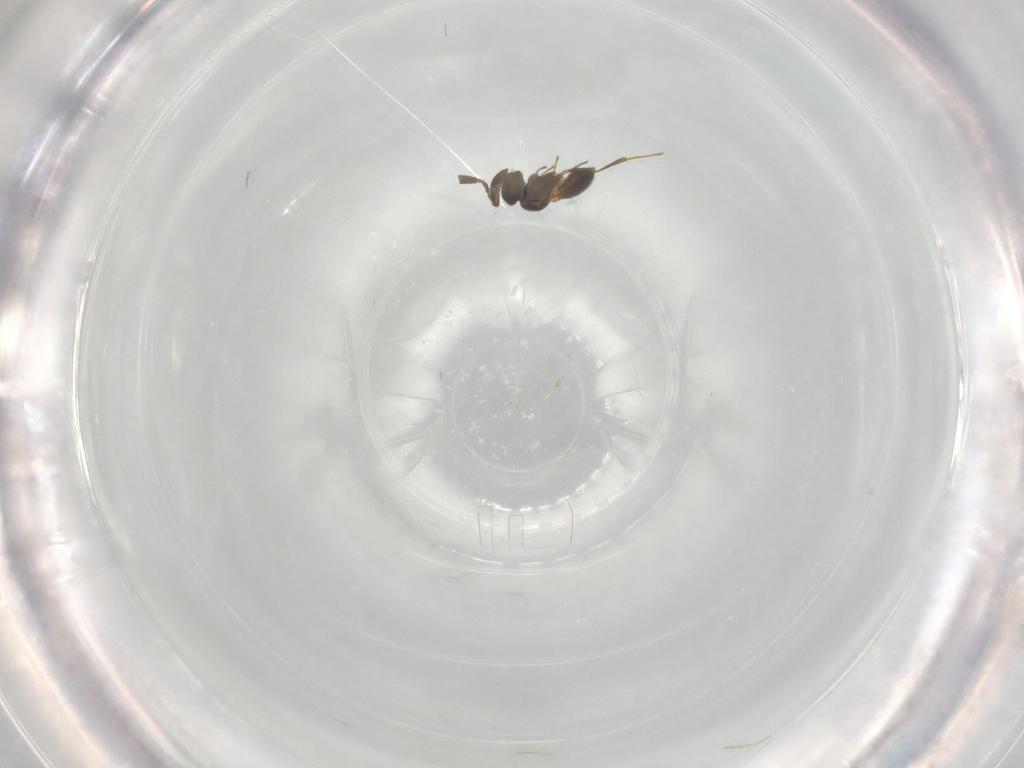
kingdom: Animalia
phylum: Arthropoda
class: Insecta
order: Hymenoptera
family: Scelionidae
